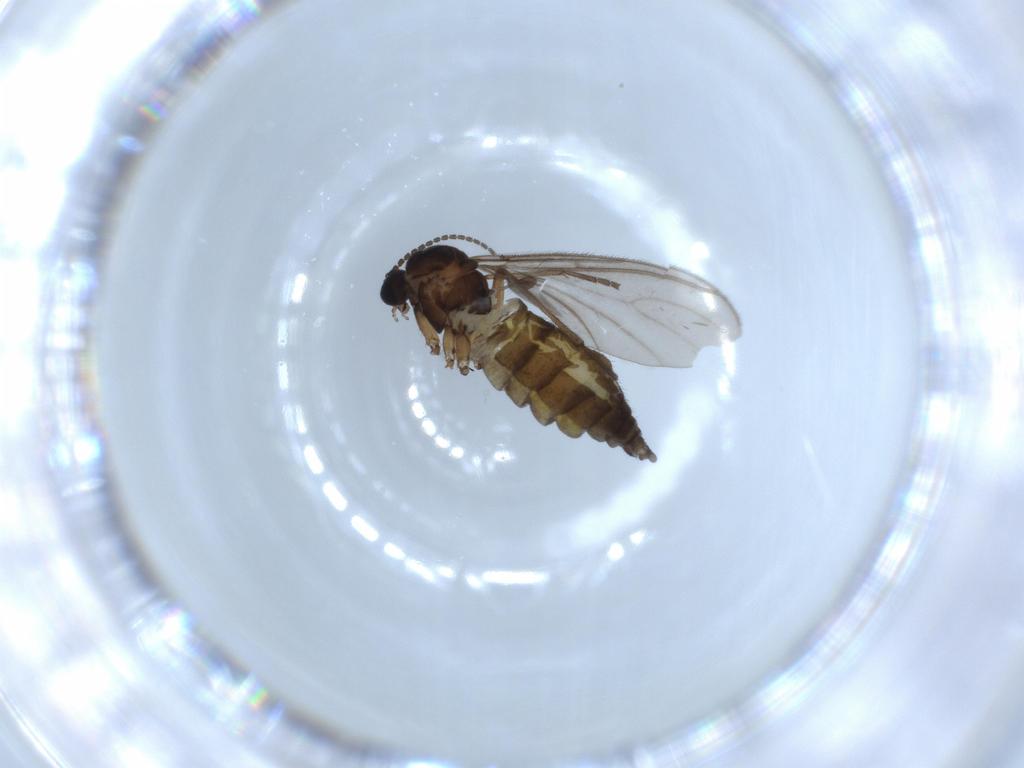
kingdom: Animalia
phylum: Arthropoda
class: Insecta
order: Diptera
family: Sciaridae
